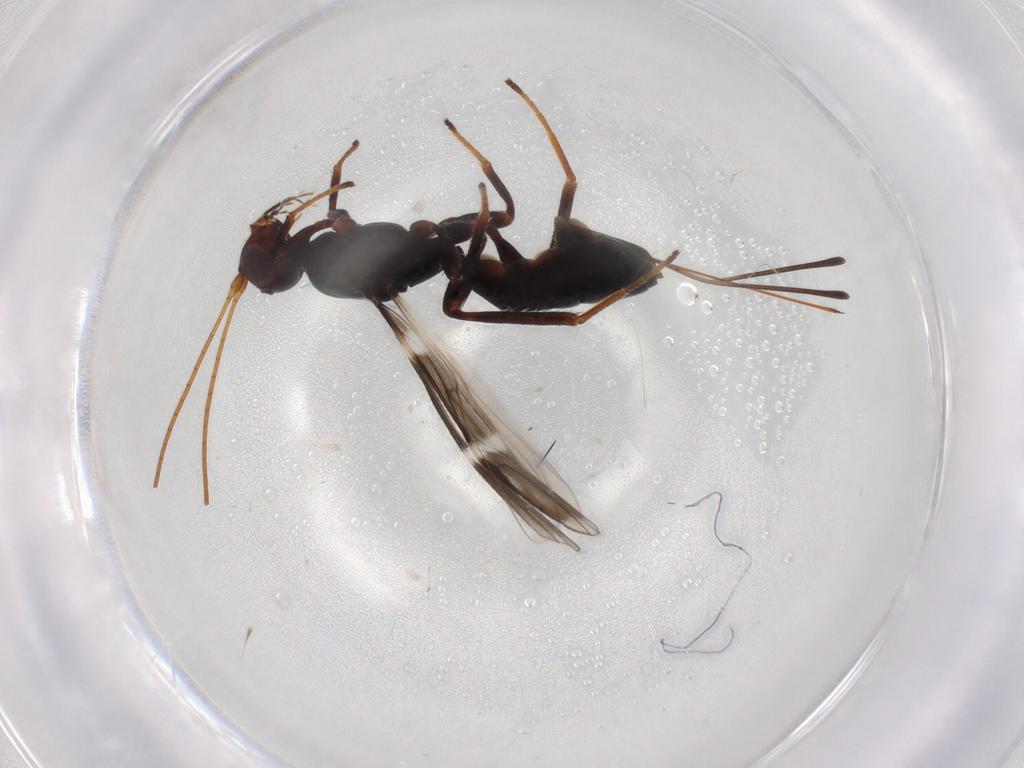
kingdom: Animalia
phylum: Arthropoda
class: Insecta
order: Hymenoptera
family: Braconidae
